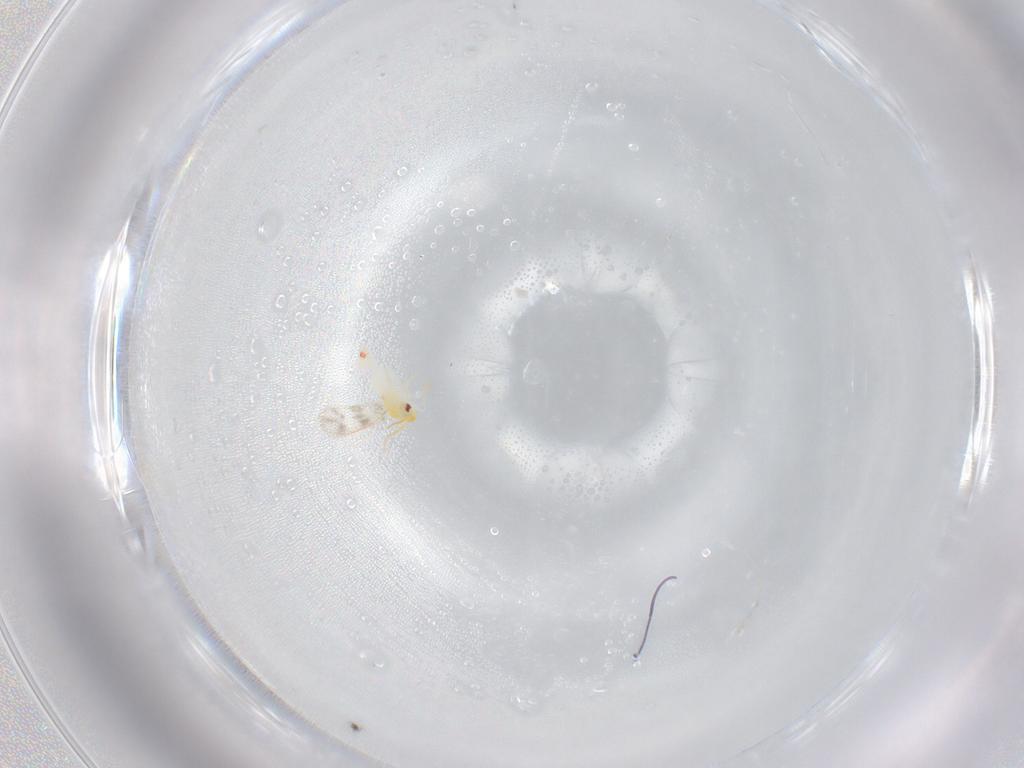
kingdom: Animalia
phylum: Arthropoda
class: Insecta
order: Hemiptera
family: Aleyrodidae
